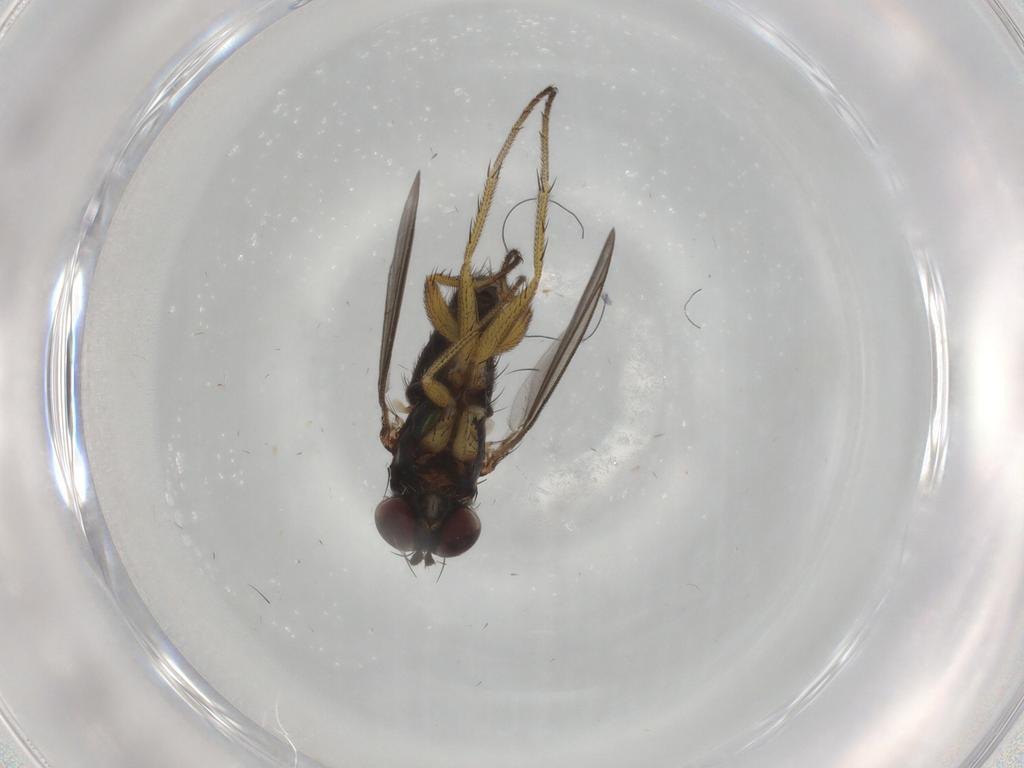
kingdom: Animalia
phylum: Arthropoda
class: Insecta
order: Diptera
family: Dolichopodidae
